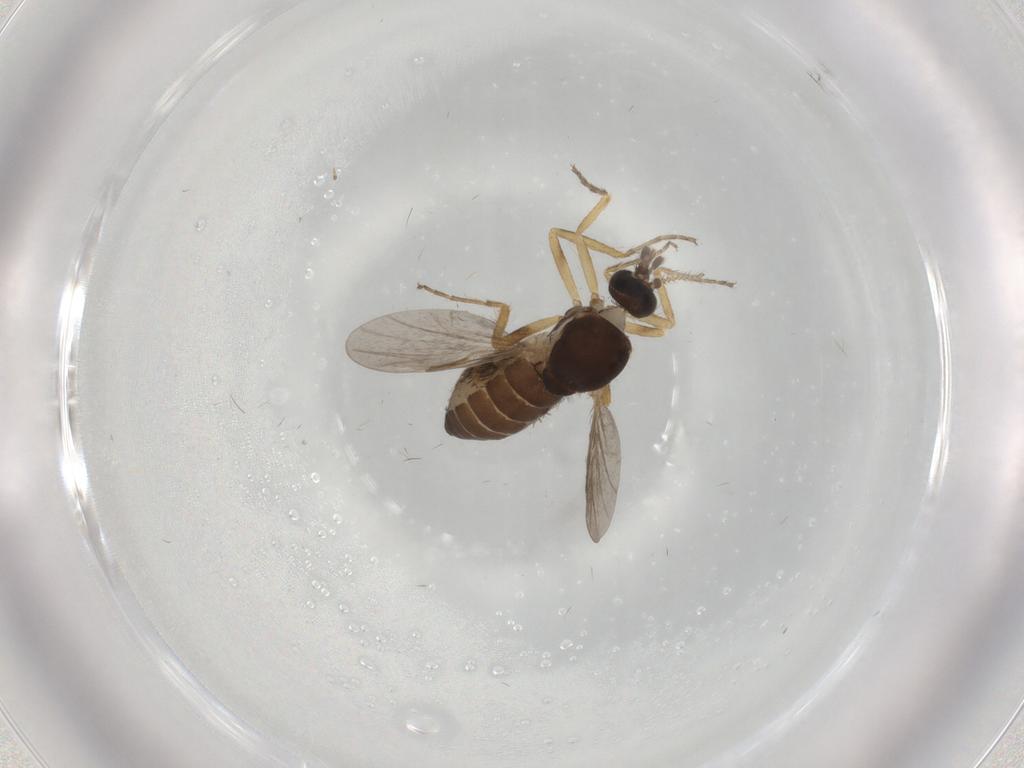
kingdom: Animalia
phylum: Arthropoda
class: Insecta
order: Diptera
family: Ceratopogonidae
